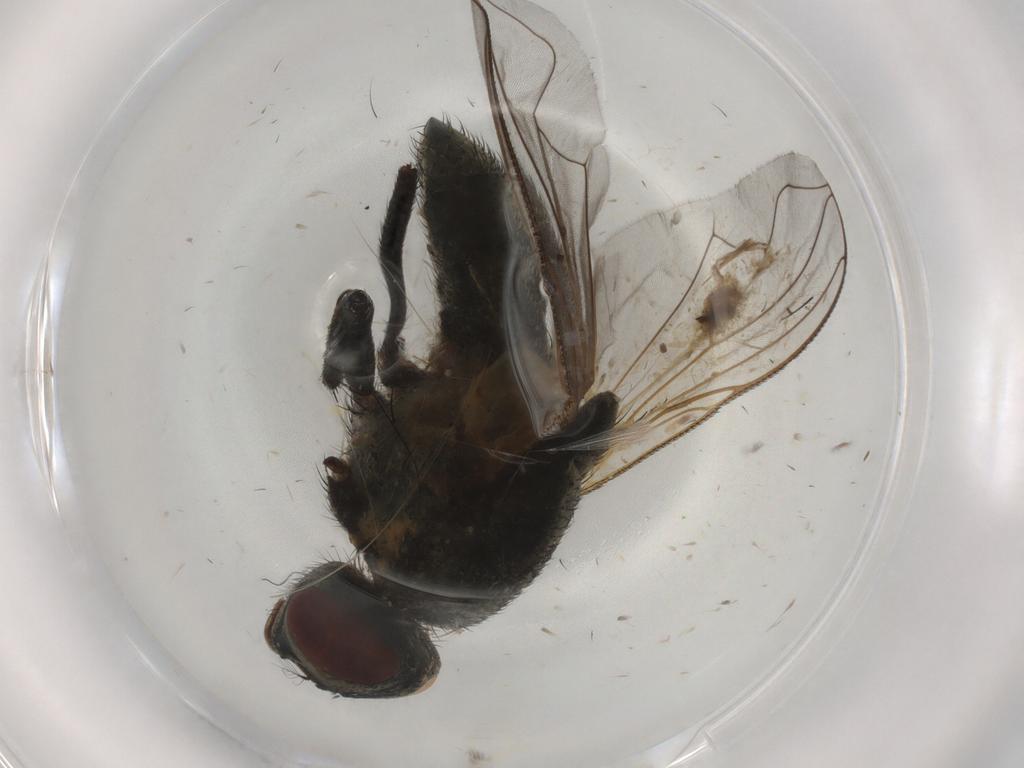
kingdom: Animalia
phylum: Arthropoda
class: Insecta
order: Diptera
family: Muscidae
